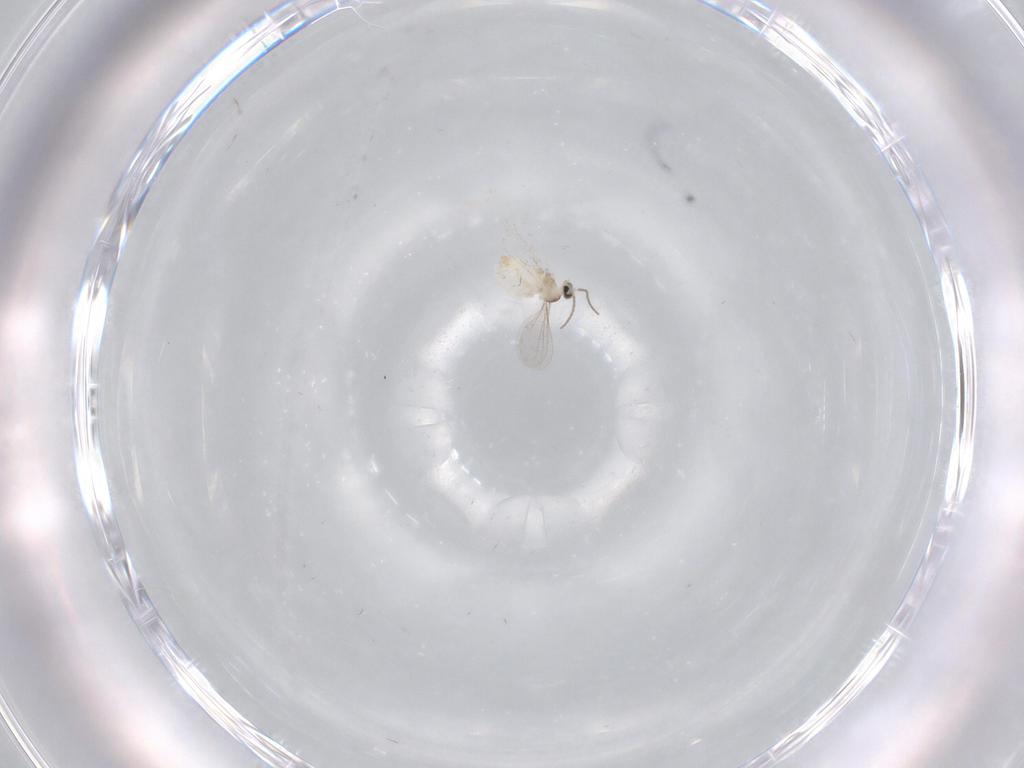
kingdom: Animalia
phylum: Arthropoda
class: Insecta
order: Diptera
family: Cecidomyiidae
